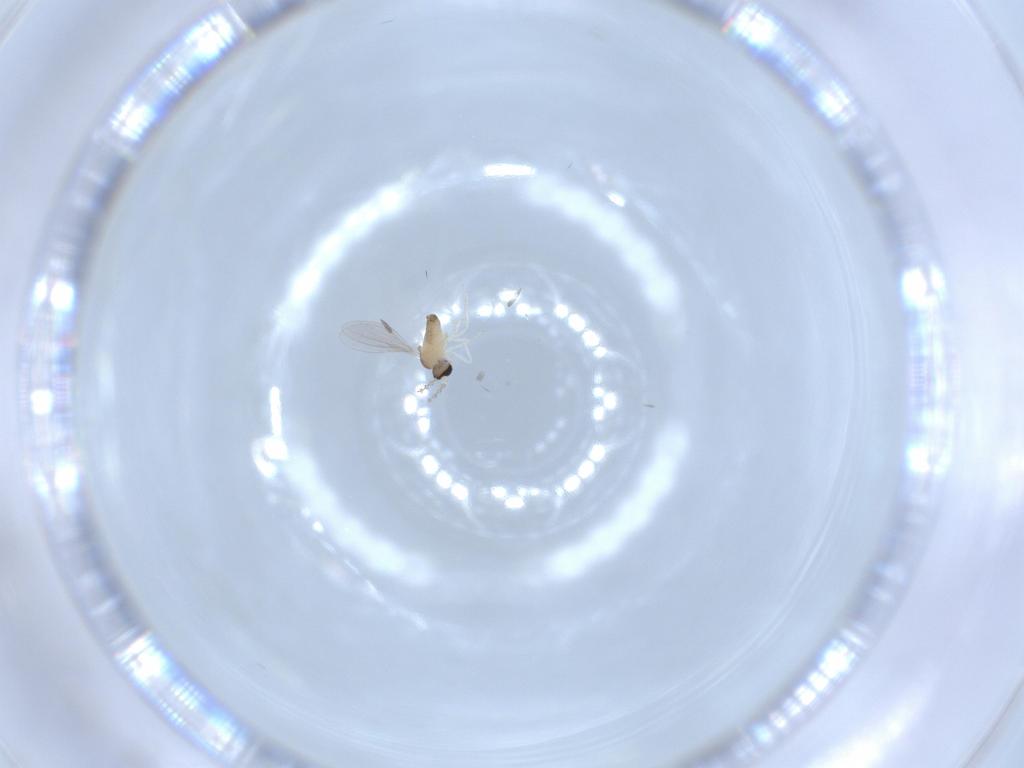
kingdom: Animalia
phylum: Arthropoda
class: Insecta
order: Diptera
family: Cecidomyiidae
